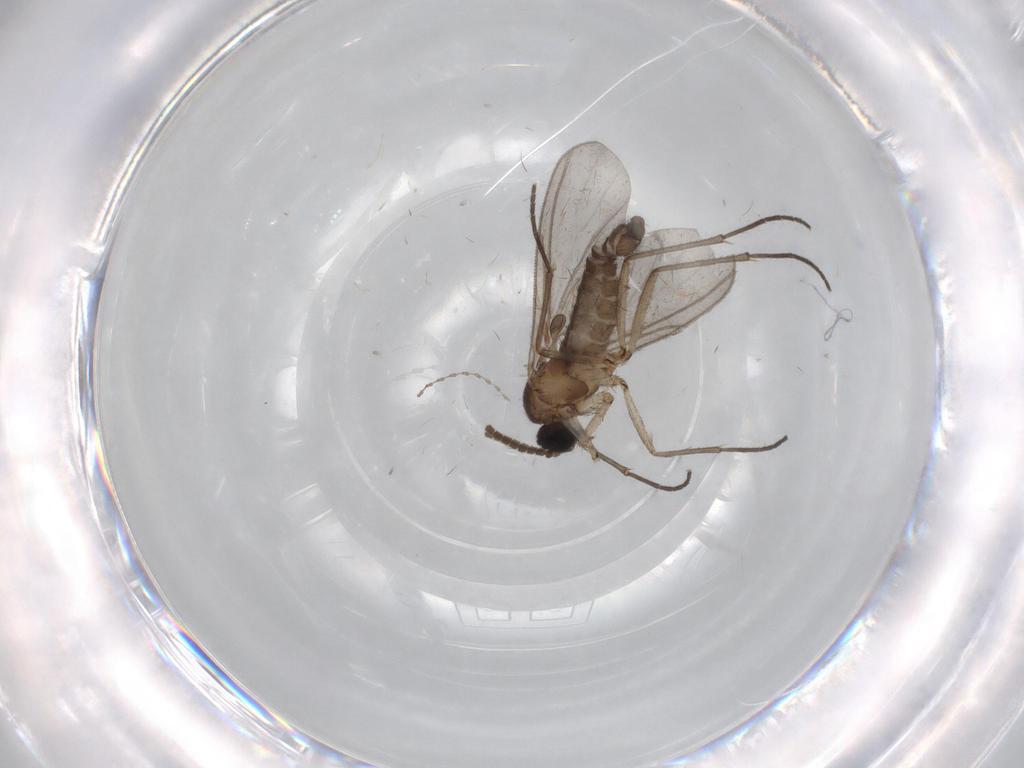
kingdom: Animalia
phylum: Arthropoda
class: Insecta
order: Diptera
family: Cecidomyiidae
